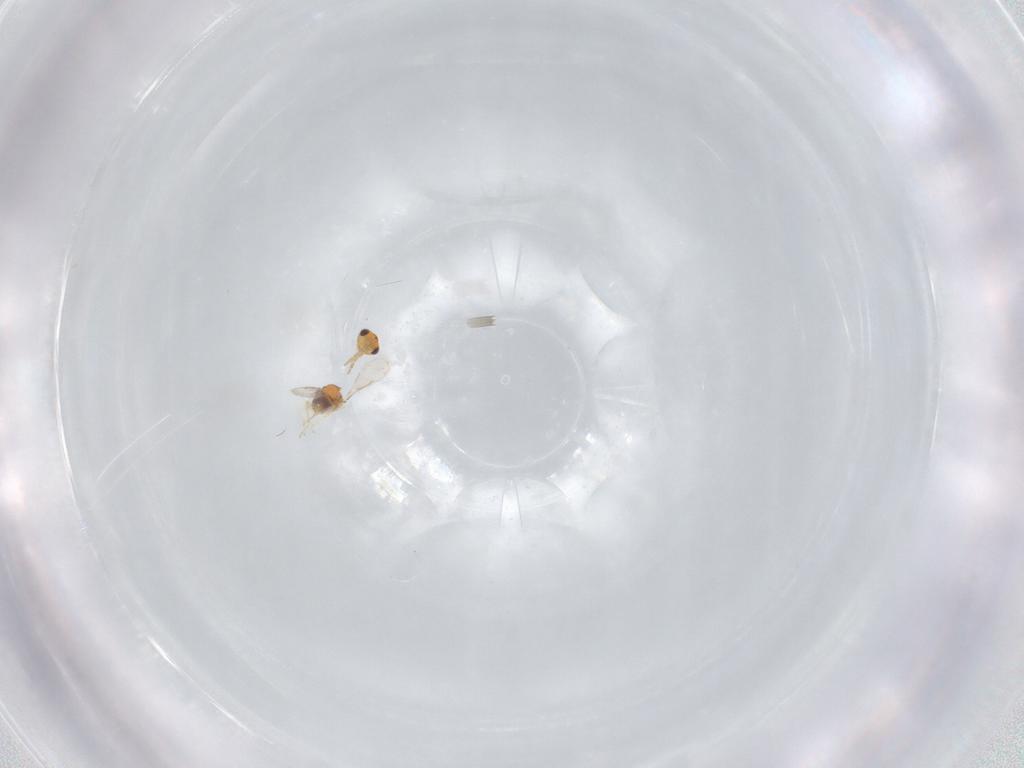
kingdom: Animalia
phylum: Arthropoda
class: Insecta
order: Hymenoptera
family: Aphelinidae
